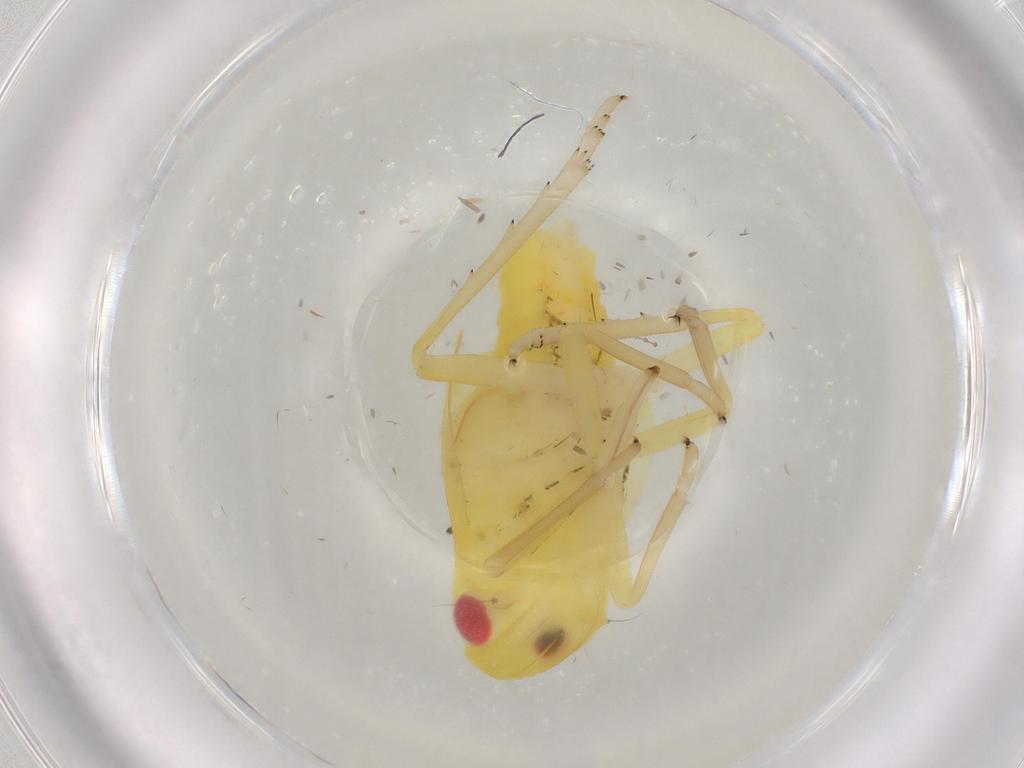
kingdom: Animalia
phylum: Arthropoda
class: Insecta
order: Hemiptera
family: Tropiduchidae
